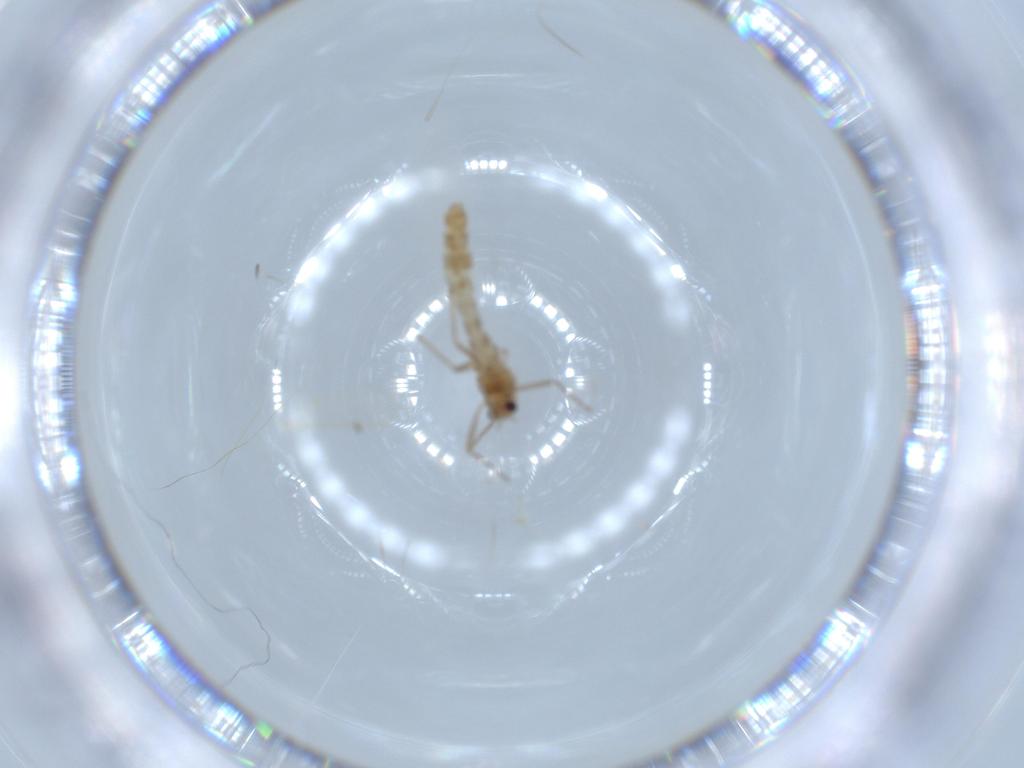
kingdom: Animalia
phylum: Arthropoda
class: Insecta
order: Diptera
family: Chironomidae
